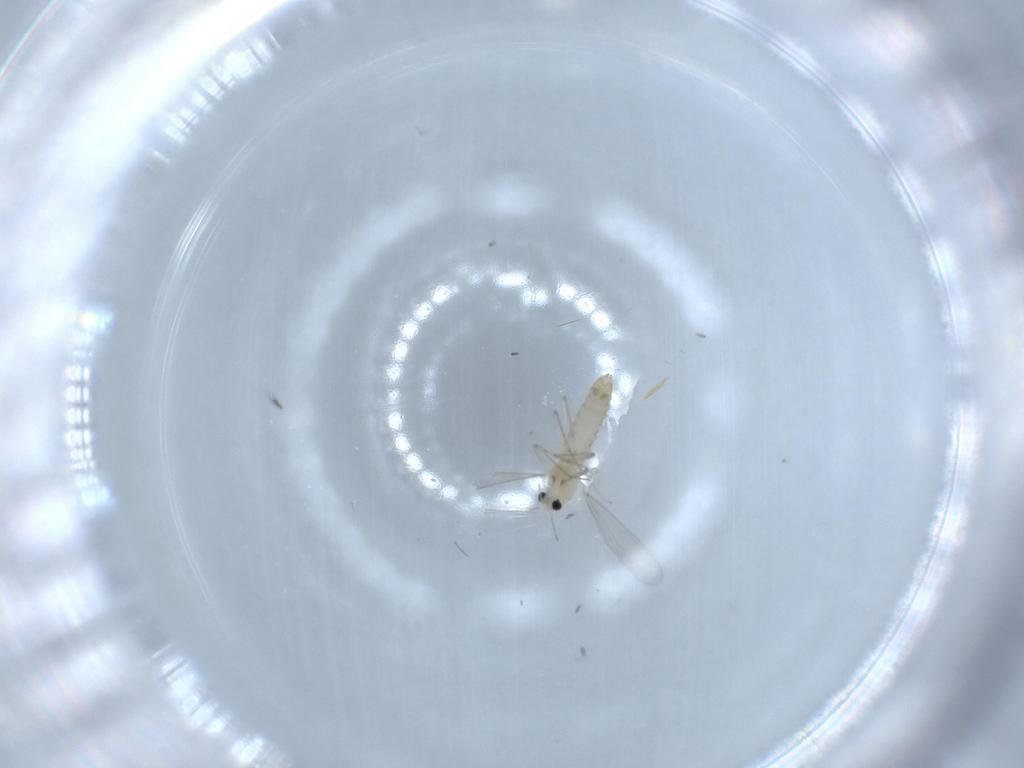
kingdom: Animalia
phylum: Arthropoda
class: Insecta
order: Diptera
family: Chironomidae
